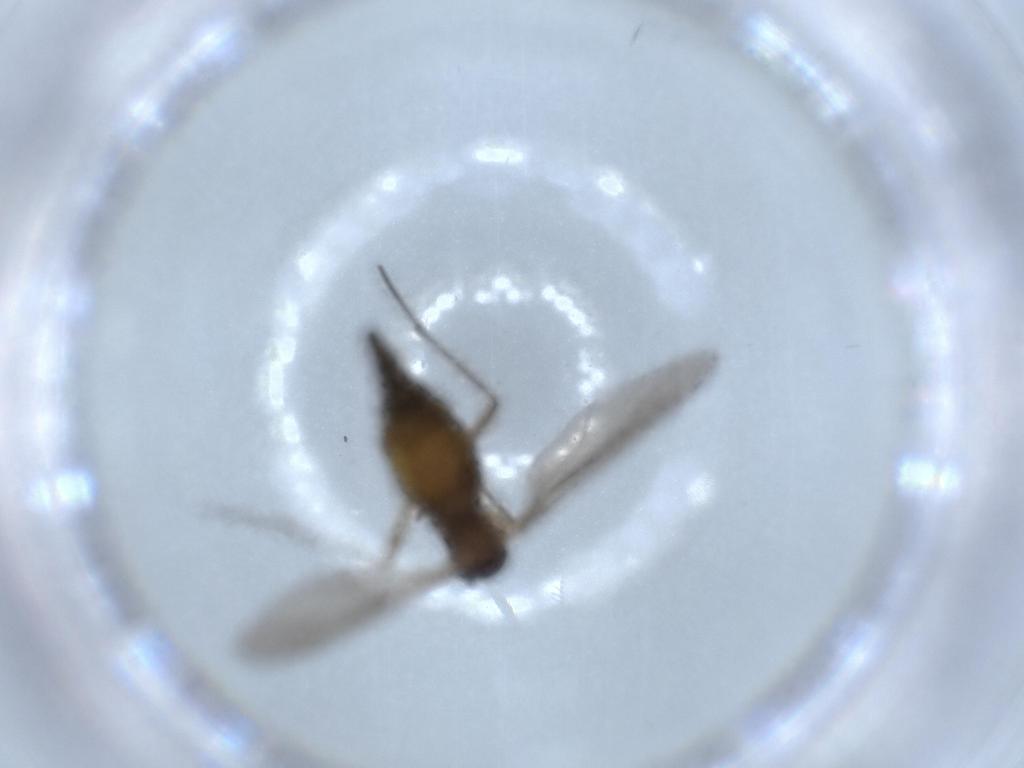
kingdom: Animalia
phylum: Arthropoda
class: Insecta
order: Diptera
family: Sciaridae
